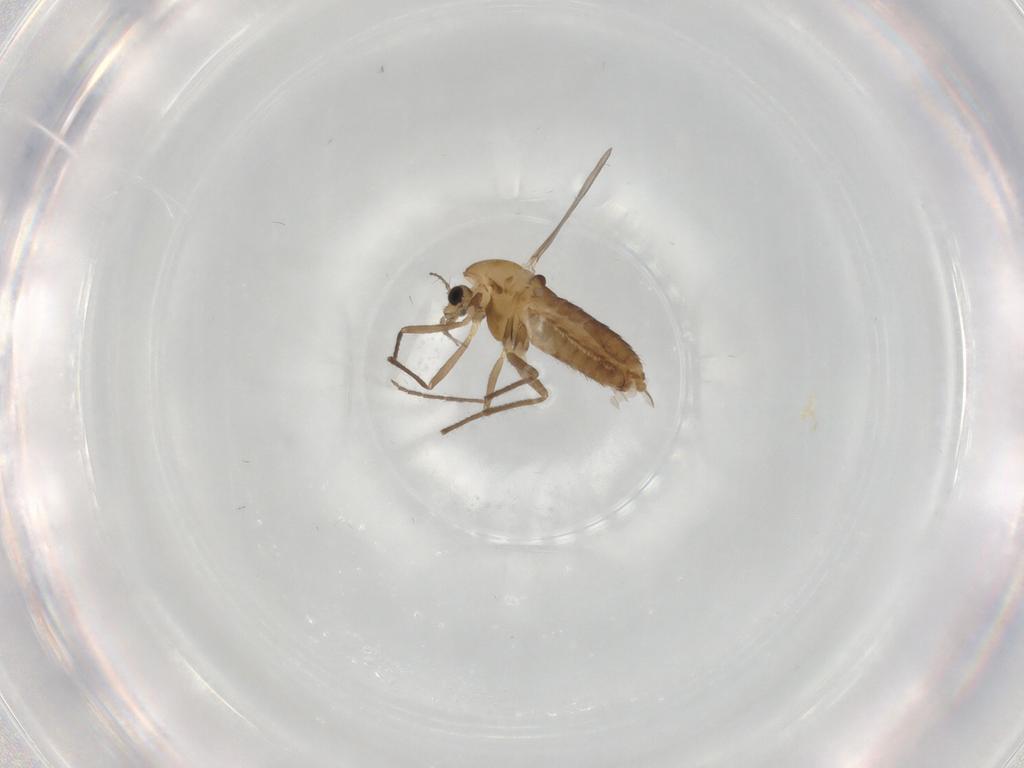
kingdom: Animalia
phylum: Arthropoda
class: Insecta
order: Diptera
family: Chironomidae
